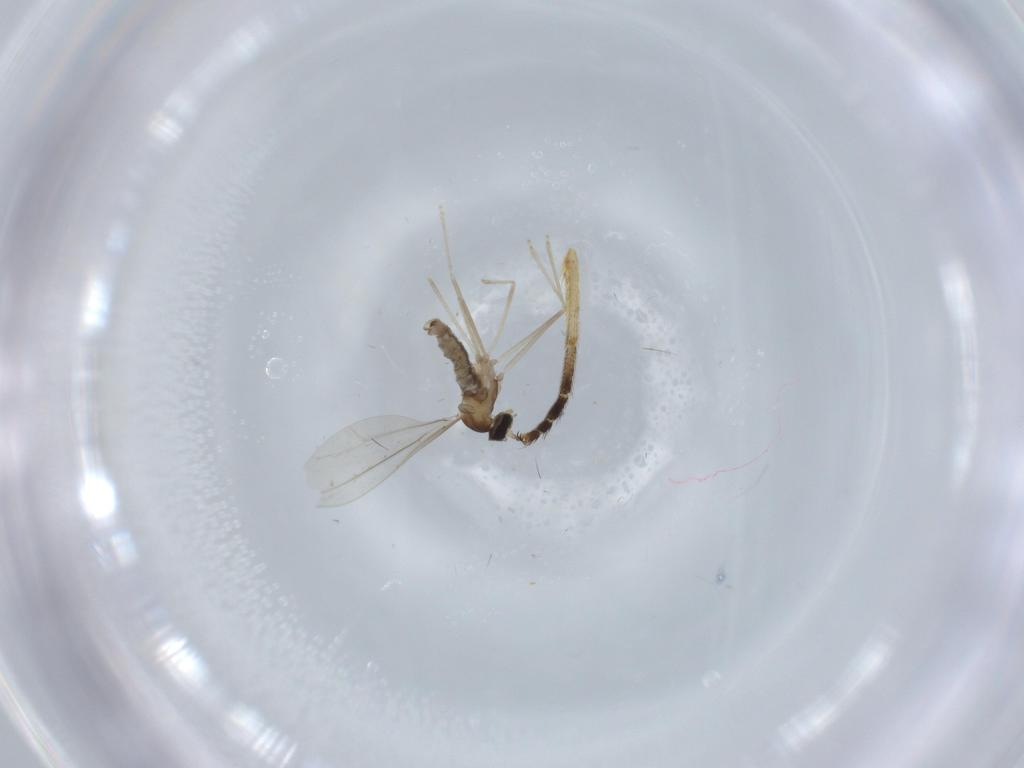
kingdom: Animalia
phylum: Arthropoda
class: Insecta
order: Diptera
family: Cecidomyiidae
